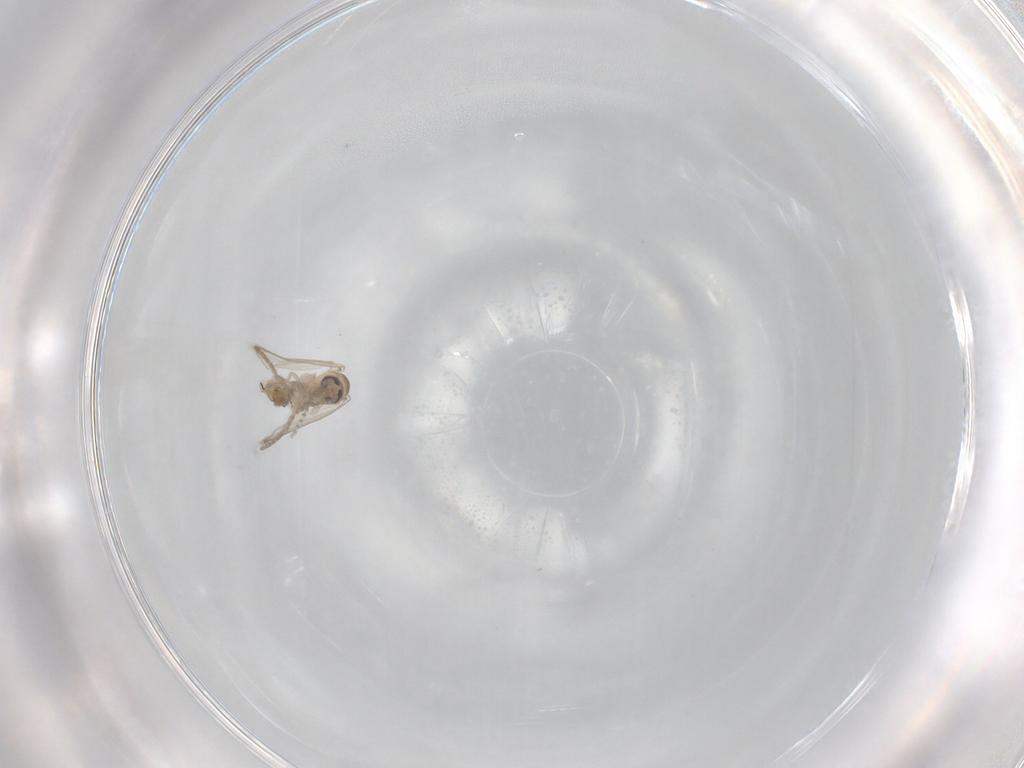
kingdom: Animalia
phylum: Arthropoda
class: Insecta
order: Diptera
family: Psychodidae
